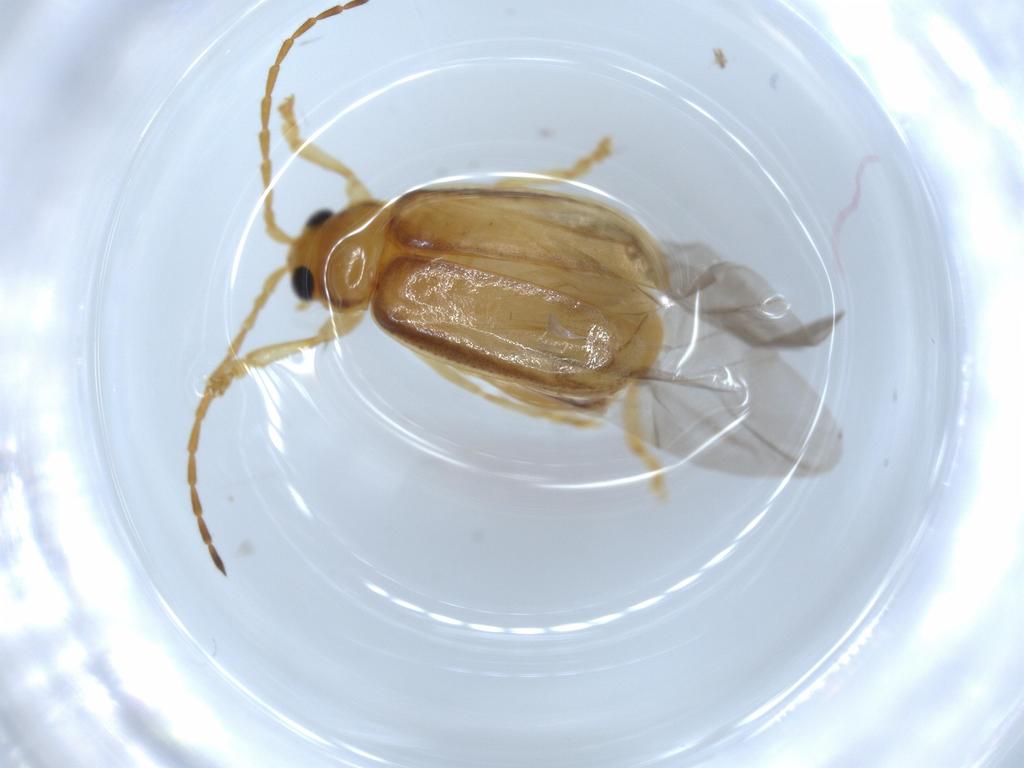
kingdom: Animalia
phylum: Arthropoda
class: Insecta
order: Coleoptera
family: Chrysomelidae
